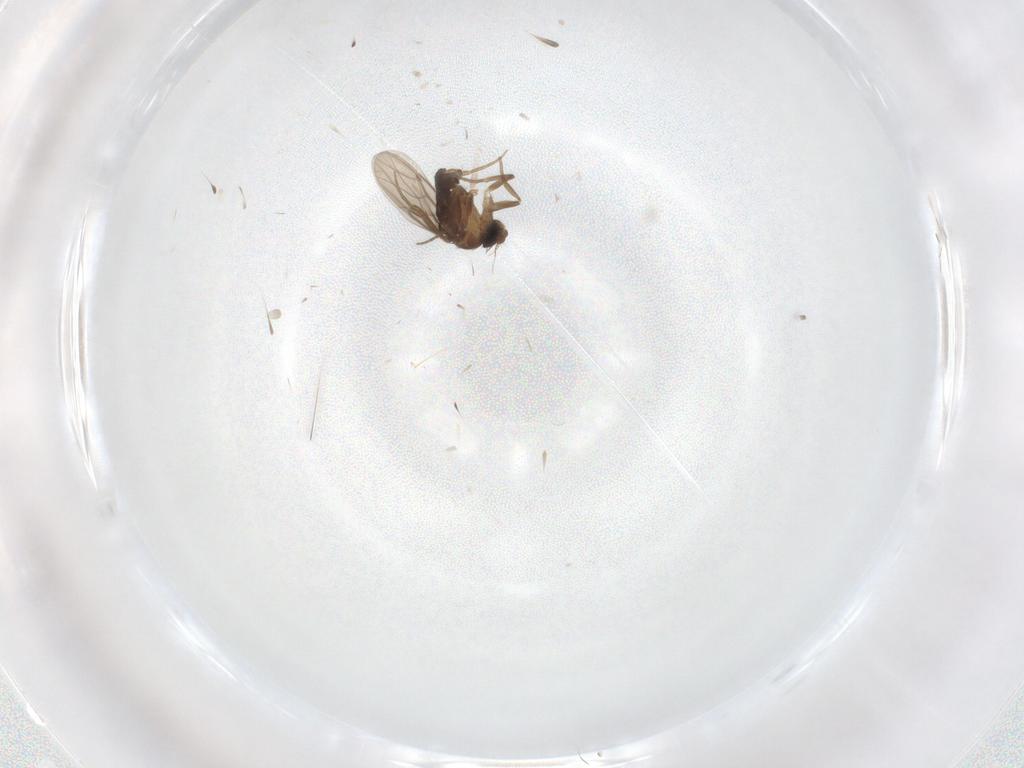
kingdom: Animalia
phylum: Arthropoda
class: Insecta
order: Diptera
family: Phoridae
